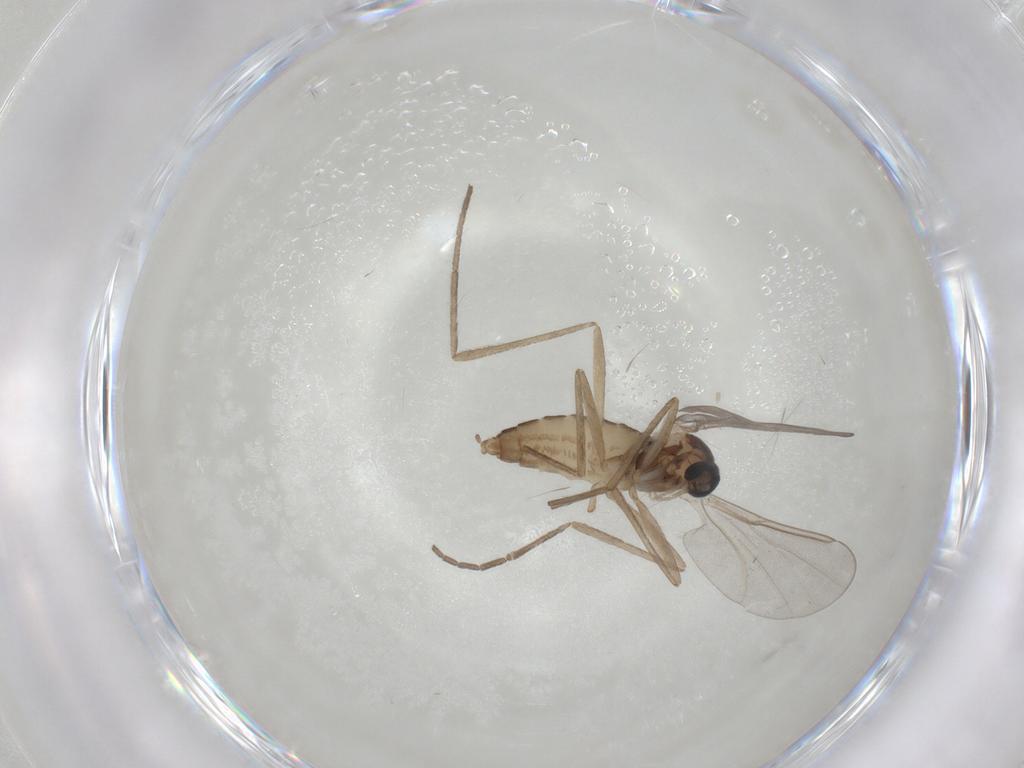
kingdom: Animalia
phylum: Arthropoda
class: Insecta
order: Diptera
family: Cecidomyiidae
